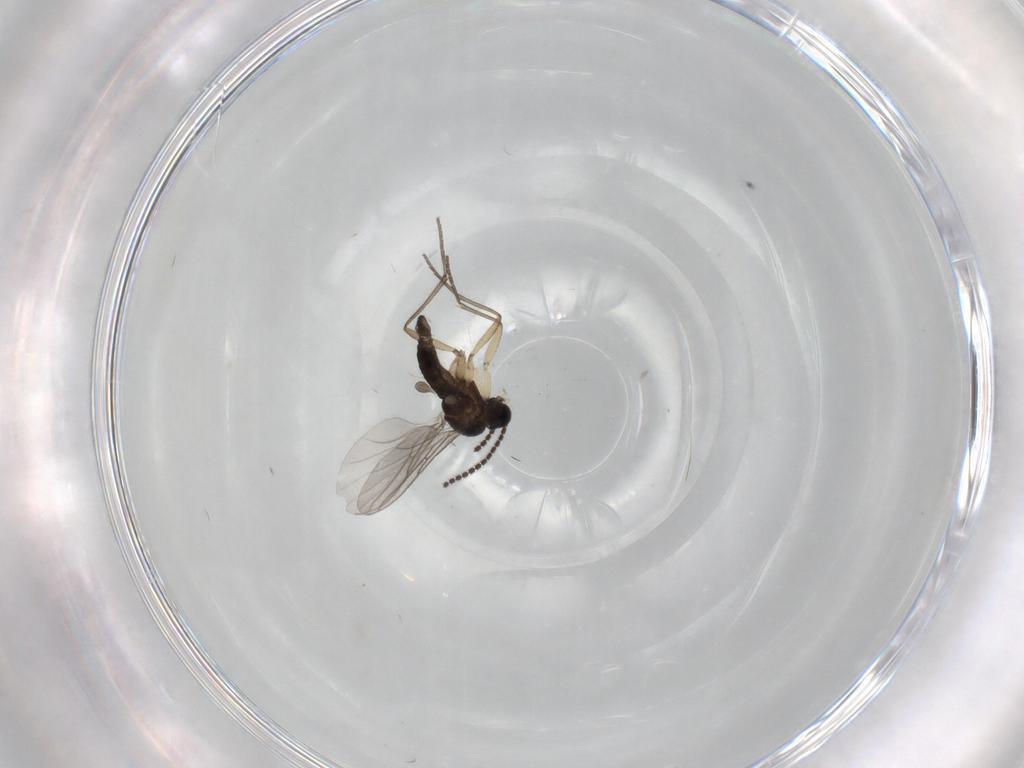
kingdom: Animalia
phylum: Arthropoda
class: Insecta
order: Diptera
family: Sciaridae
